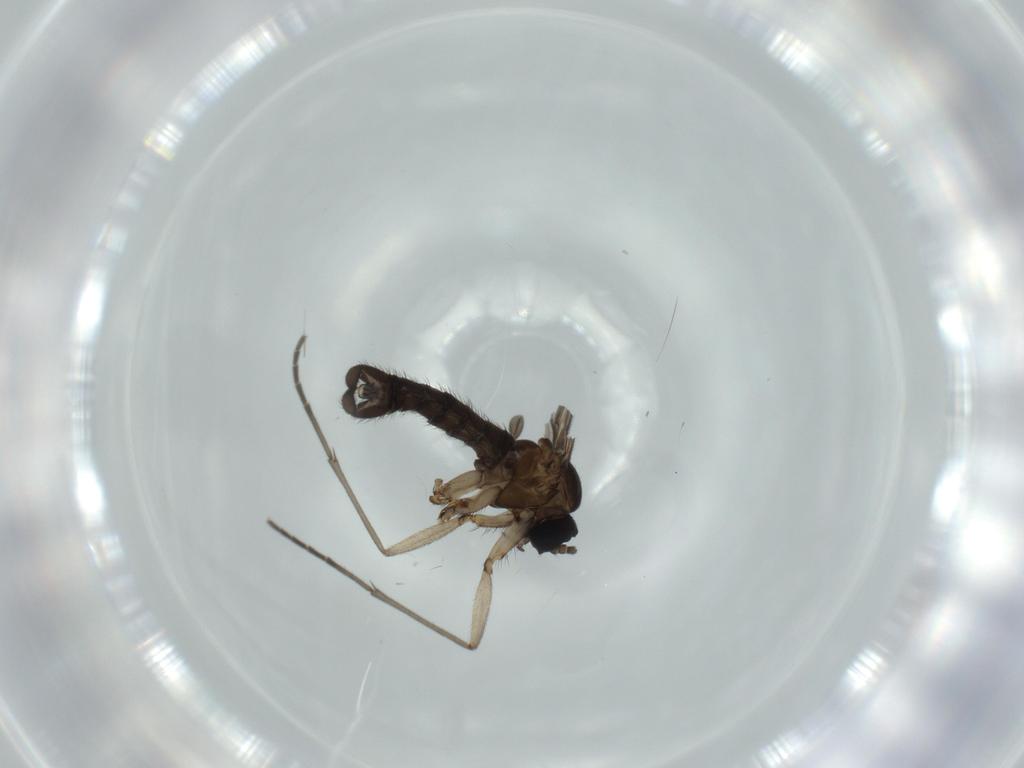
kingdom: Animalia
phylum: Arthropoda
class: Insecta
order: Diptera
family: Sciaridae
